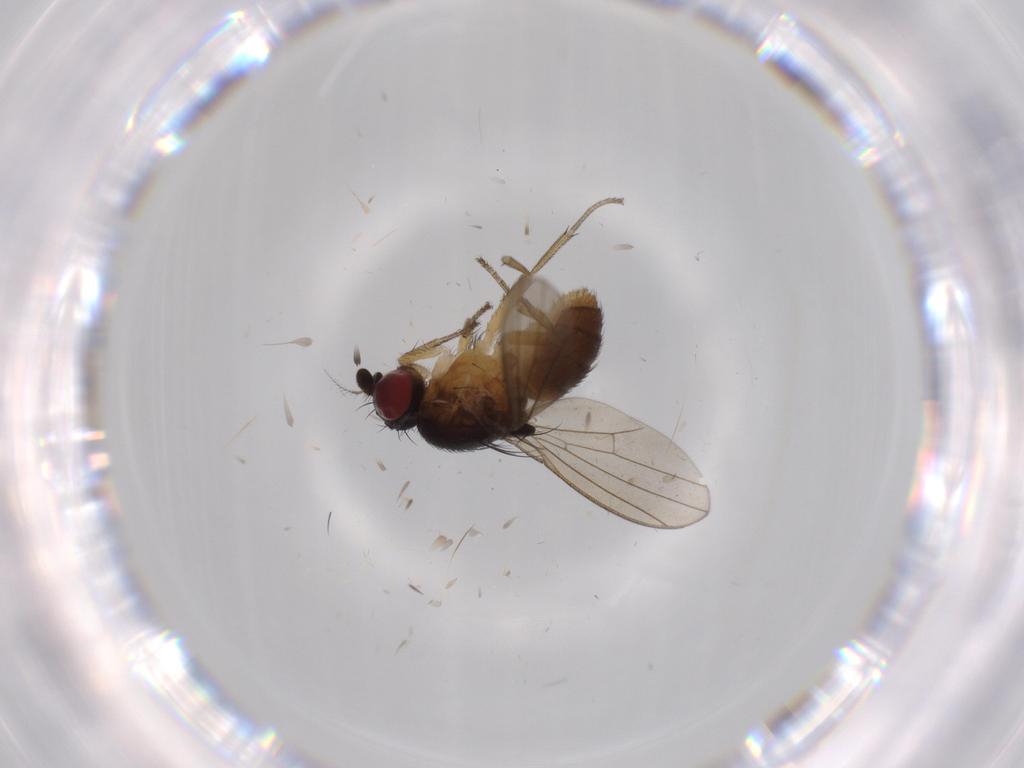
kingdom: Animalia
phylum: Arthropoda
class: Insecta
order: Diptera
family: Lauxaniidae
